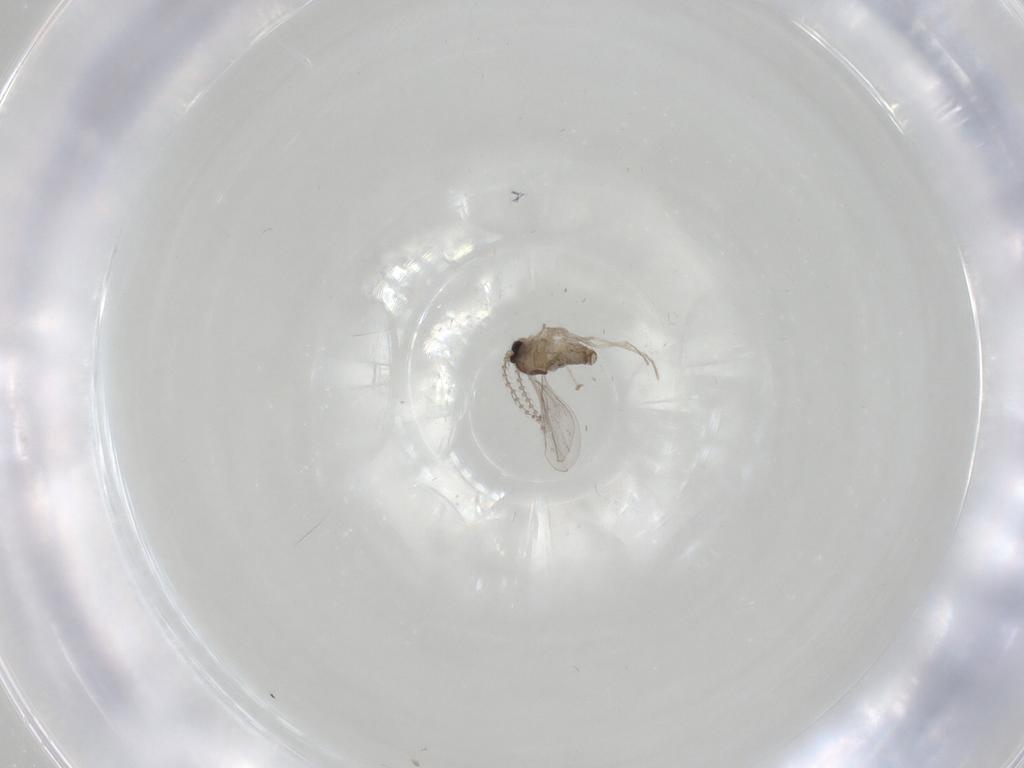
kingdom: Animalia
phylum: Arthropoda
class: Insecta
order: Diptera
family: Cecidomyiidae
